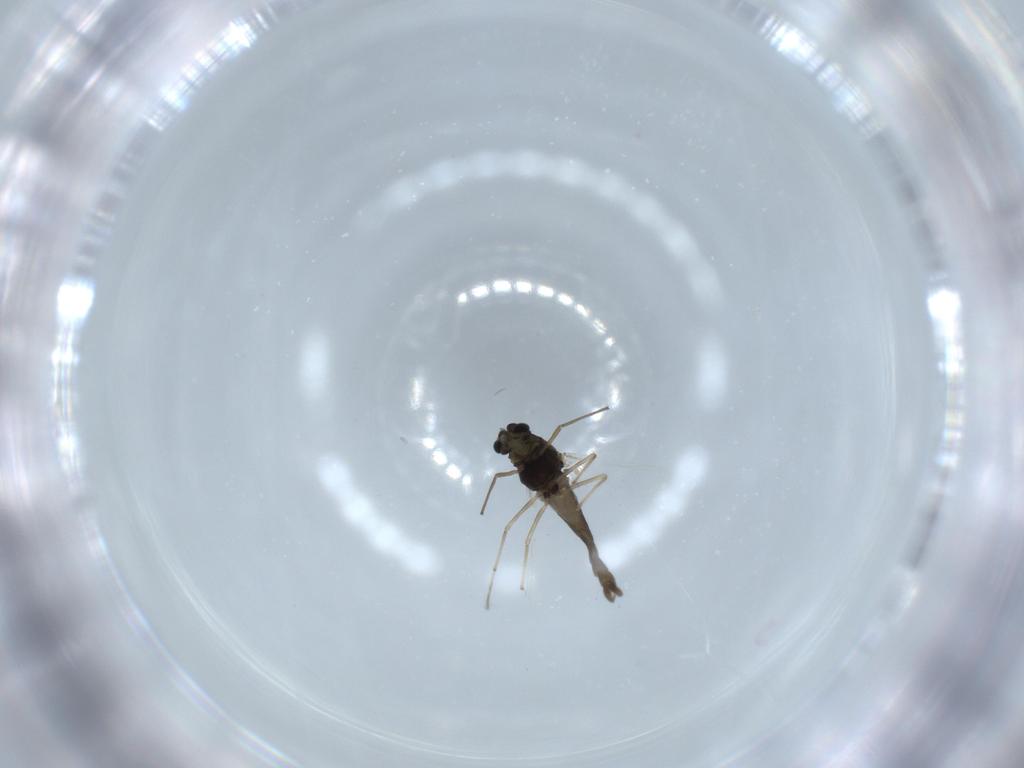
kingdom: Animalia
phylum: Arthropoda
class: Insecta
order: Diptera
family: Chironomidae
